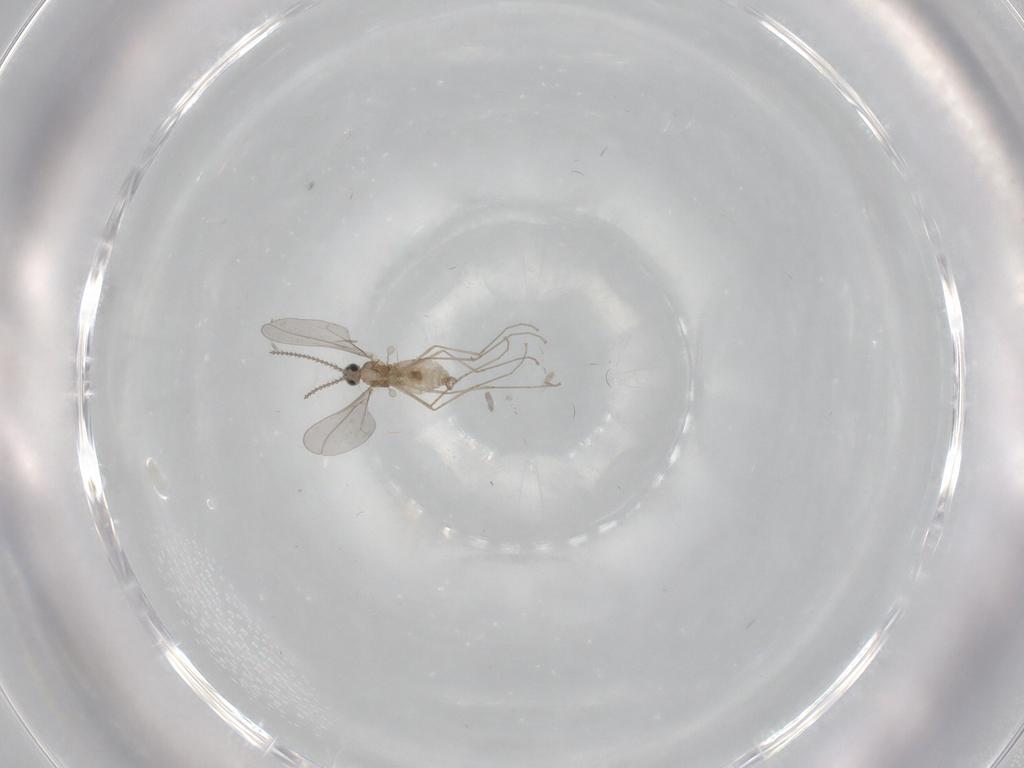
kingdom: Animalia
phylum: Arthropoda
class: Insecta
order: Diptera
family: Cecidomyiidae
